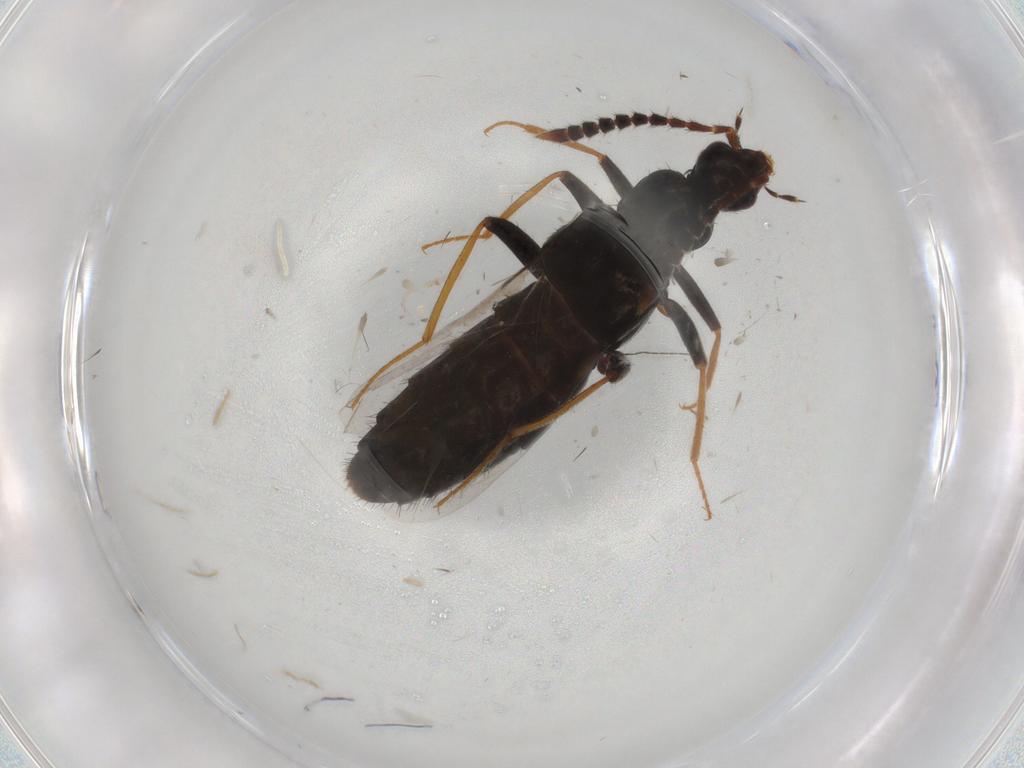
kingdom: Animalia
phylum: Arthropoda
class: Insecta
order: Coleoptera
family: Staphylinidae
